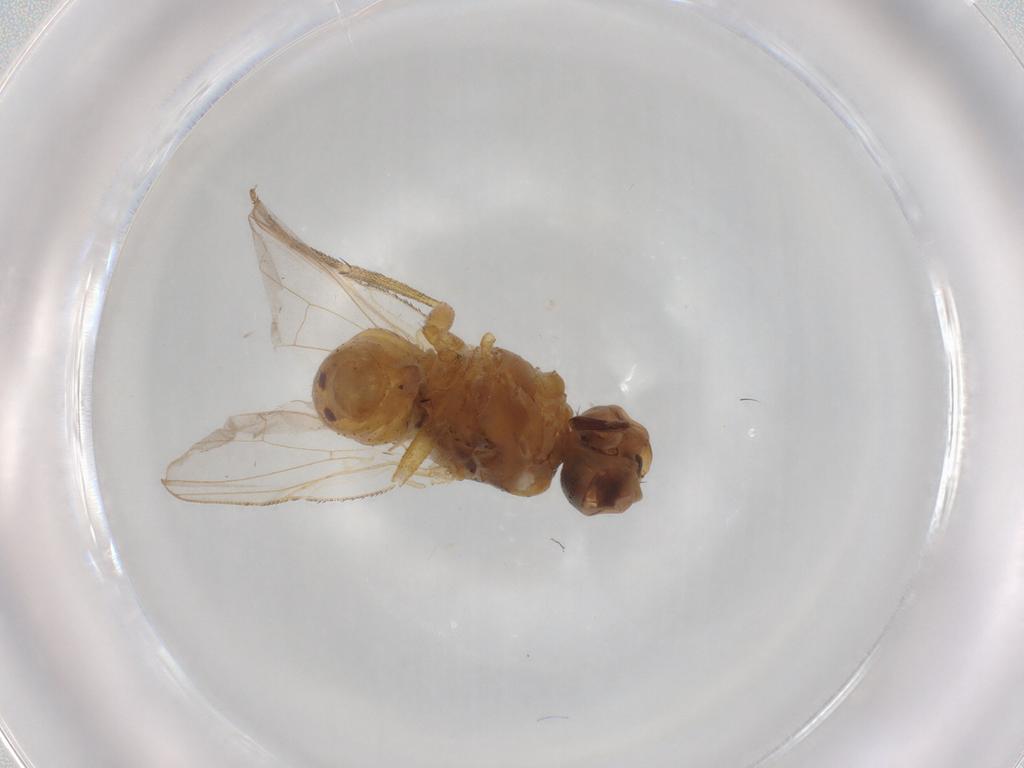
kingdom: Animalia
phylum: Arthropoda
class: Insecta
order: Diptera
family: Muscidae
